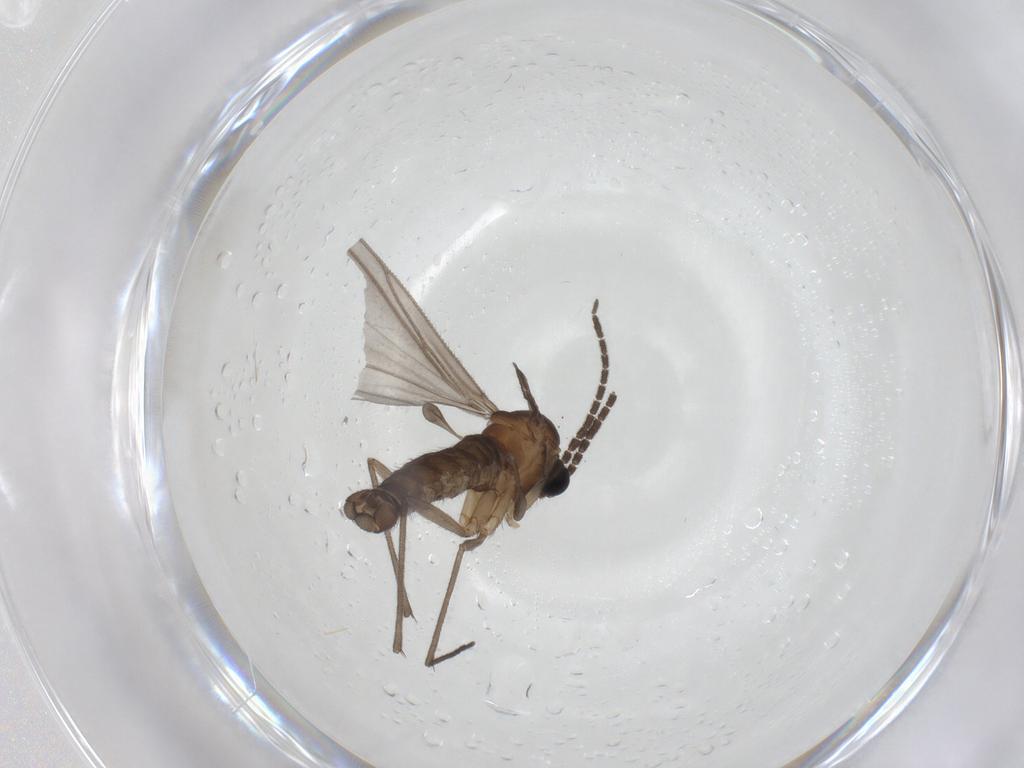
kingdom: Animalia
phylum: Arthropoda
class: Insecta
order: Diptera
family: Sciaridae
